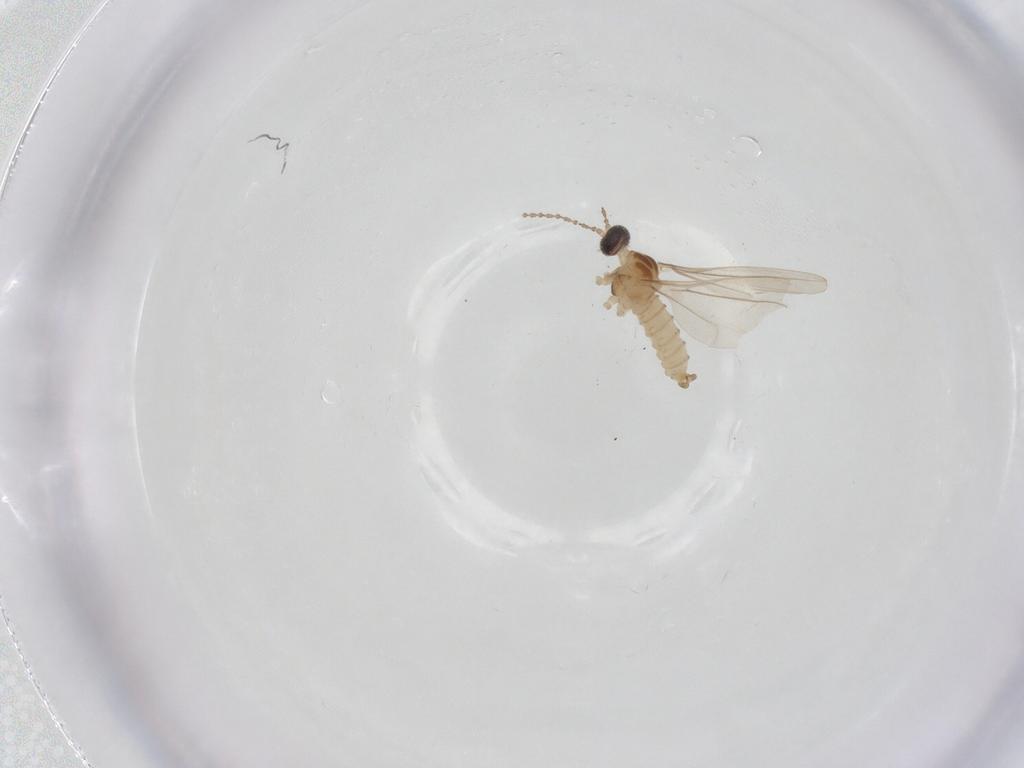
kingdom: Animalia
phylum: Arthropoda
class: Insecta
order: Diptera
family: Cecidomyiidae
